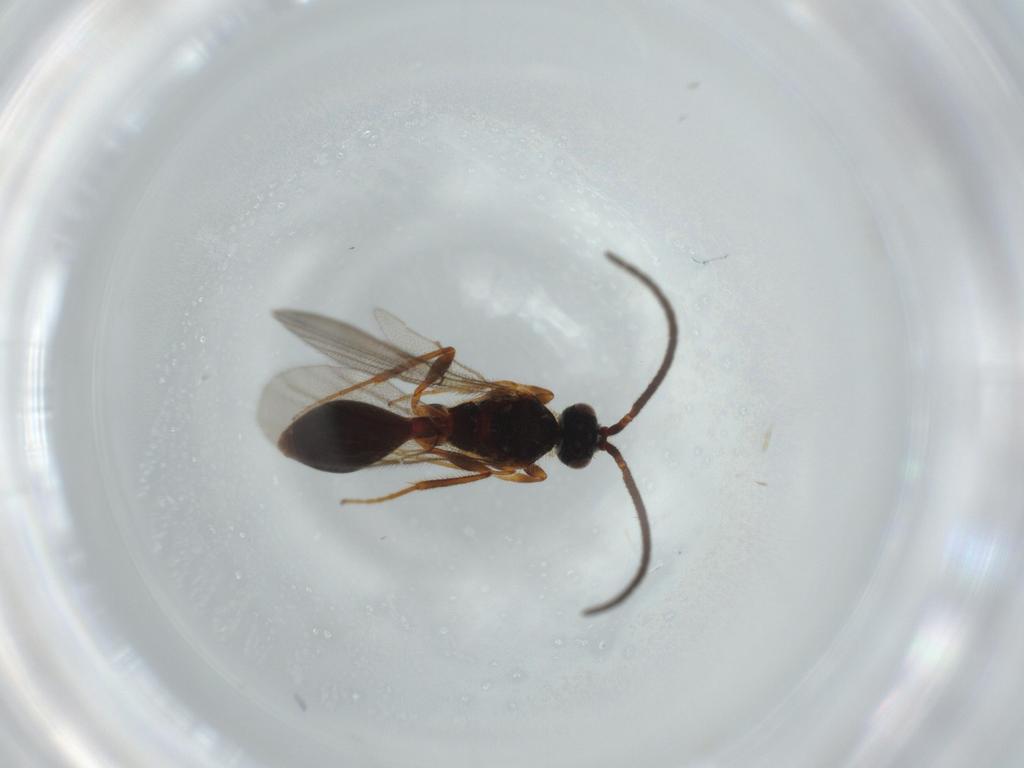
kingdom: Animalia
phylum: Arthropoda
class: Insecta
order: Hymenoptera
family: Diapriidae
